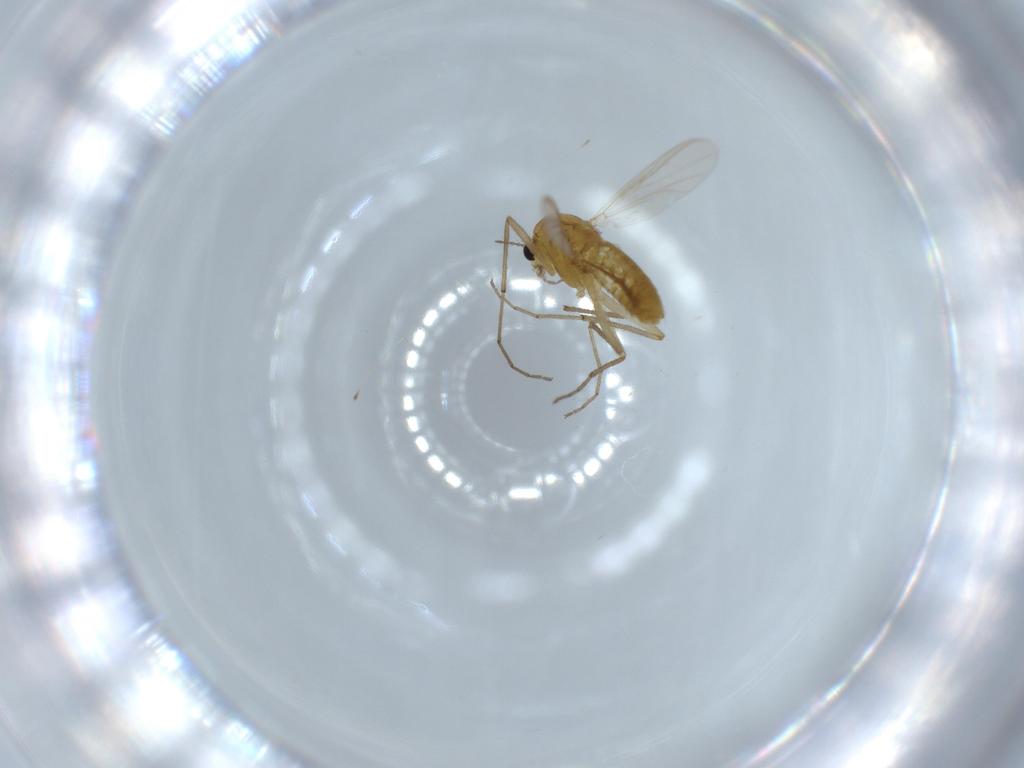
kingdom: Animalia
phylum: Arthropoda
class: Insecta
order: Diptera
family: Chironomidae
